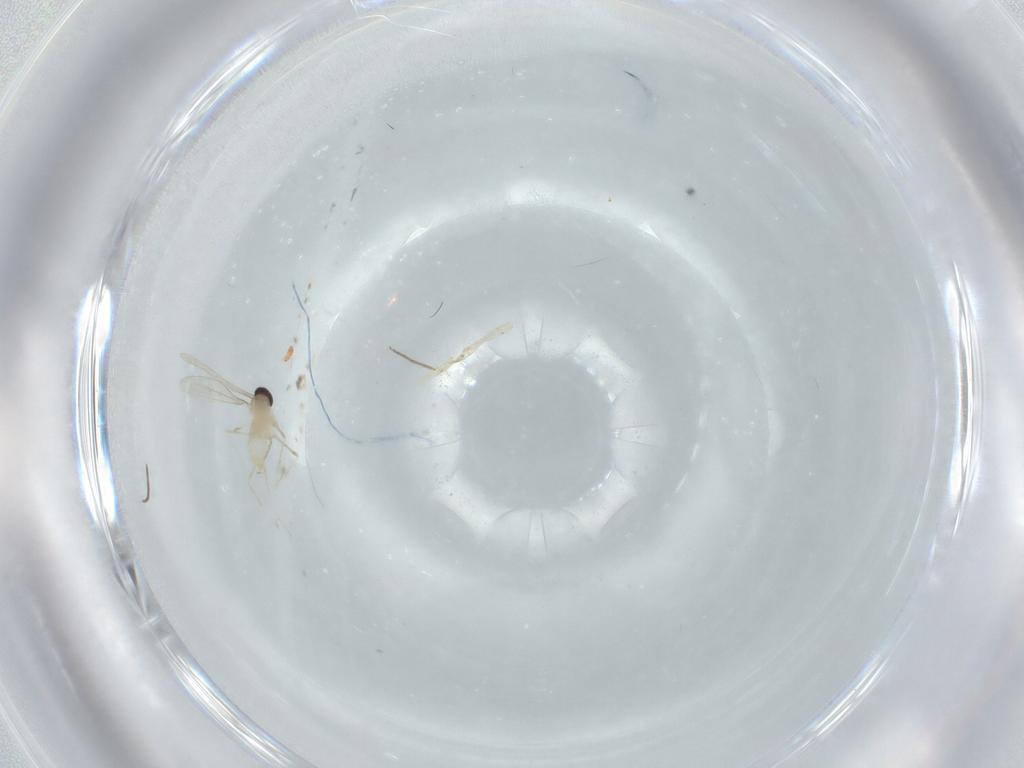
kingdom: Animalia
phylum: Arthropoda
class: Insecta
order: Diptera
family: Cecidomyiidae
